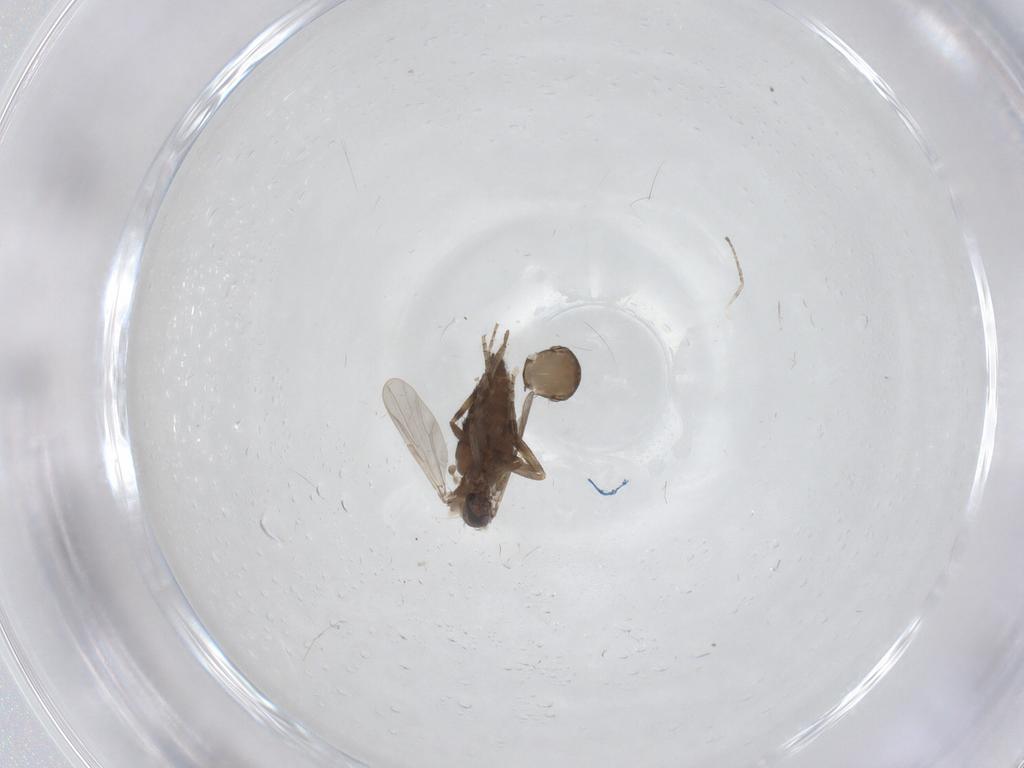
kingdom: Animalia
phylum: Arthropoda
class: Insecta
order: Diptera
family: Ceratopogonidae
